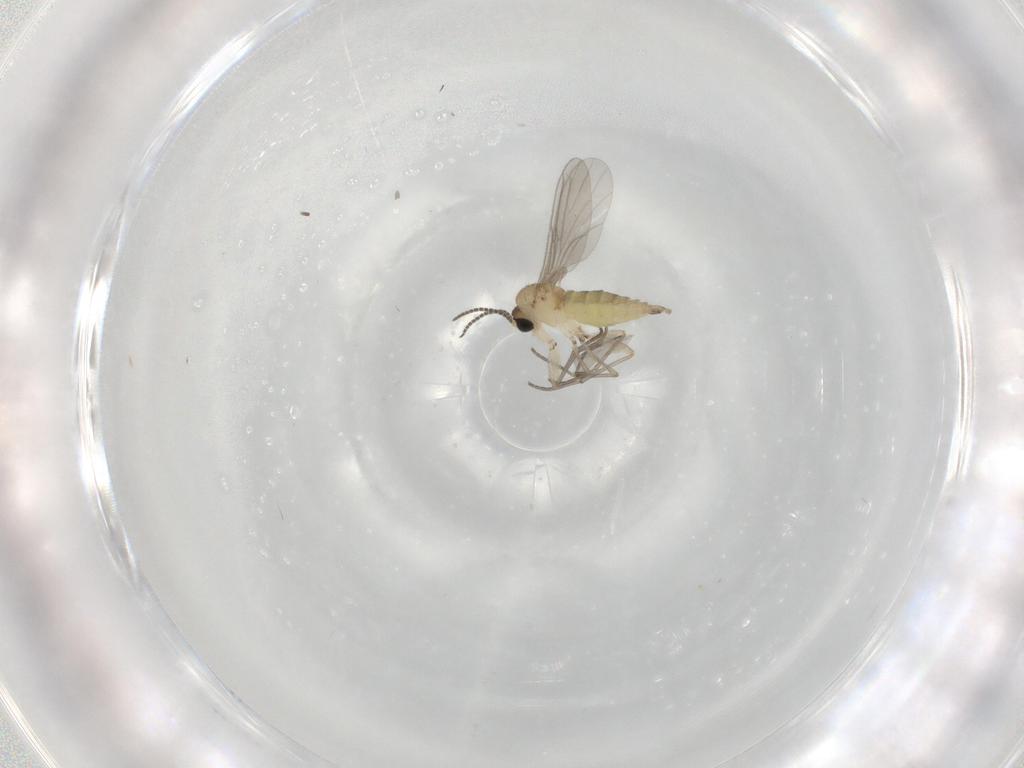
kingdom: Animalia
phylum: Arthropoda
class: Insecta
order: Diptera
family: Sciaridae
